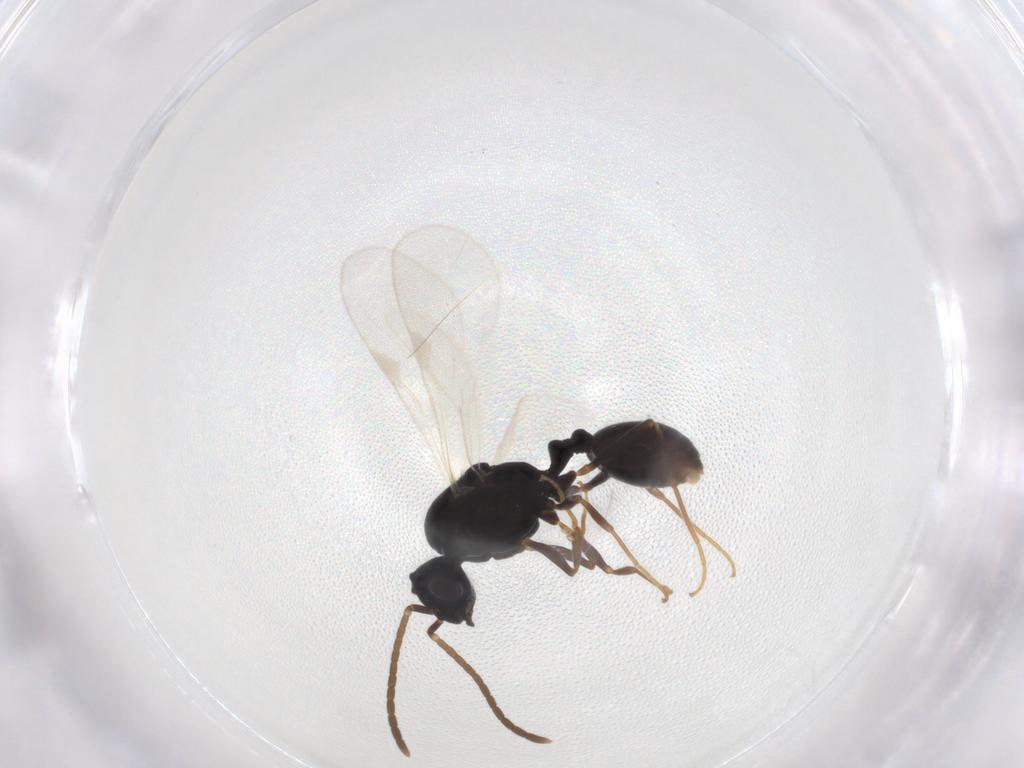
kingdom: Animalia
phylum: Arthropoda
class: Insecta
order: Hymenoptera
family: Formicidae
